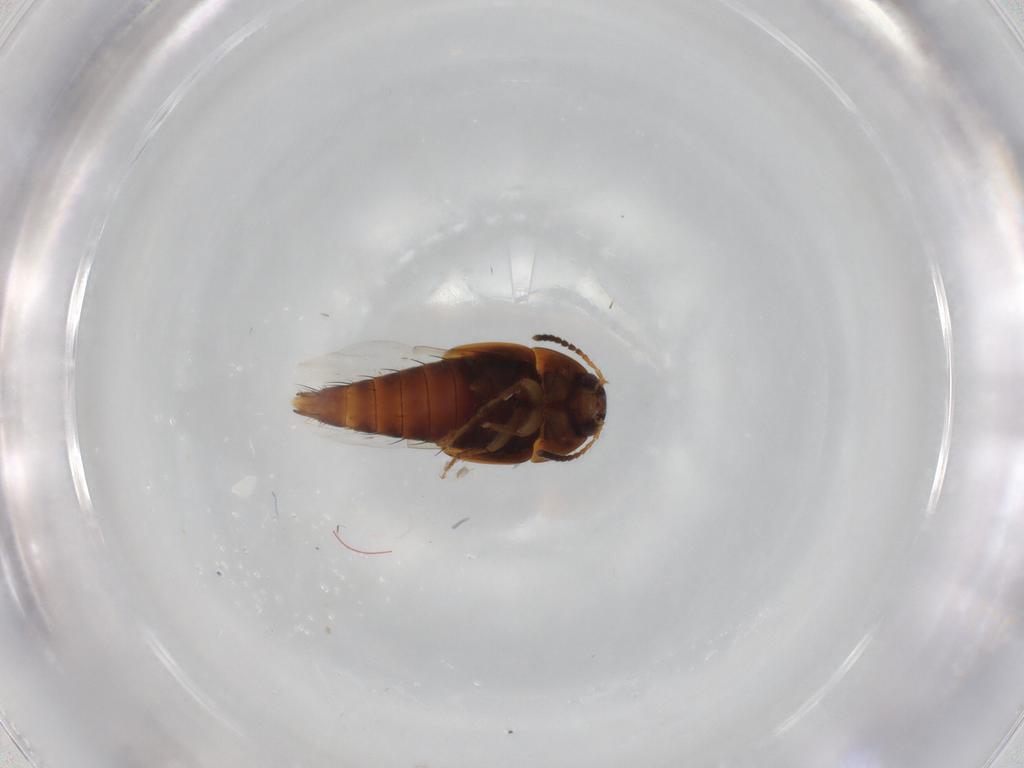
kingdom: Animalia
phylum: Arthropoda
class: Insecta
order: Coleoptera
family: Staphylinidae
